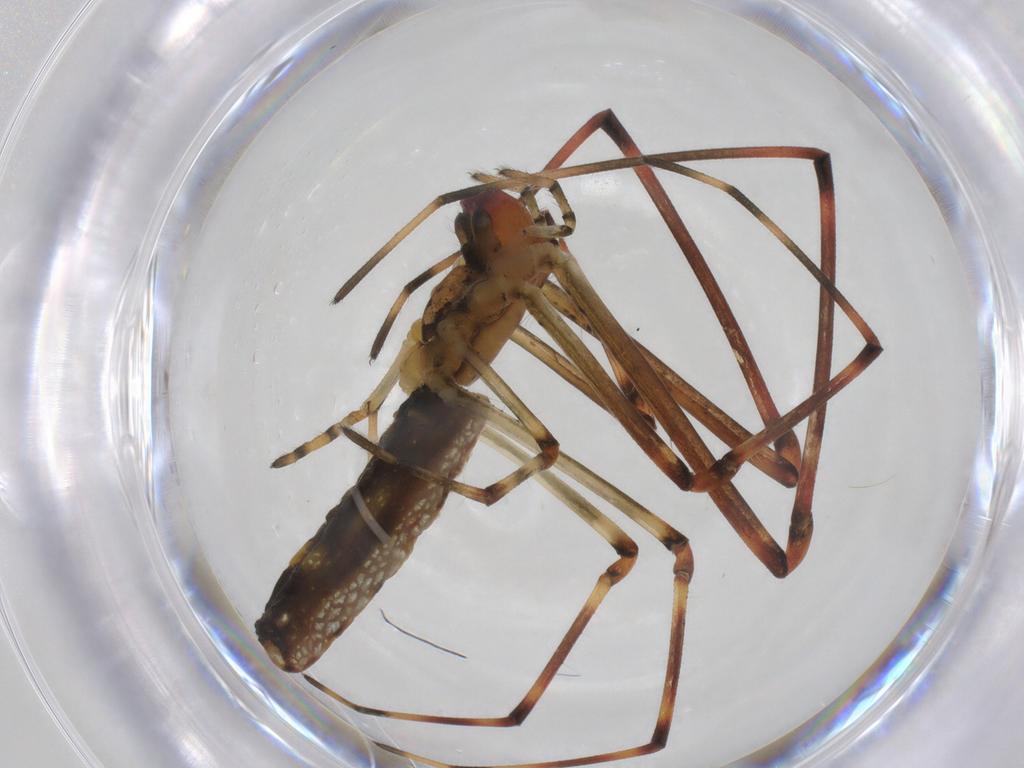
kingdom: Animalia
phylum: Arthropoda
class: Arachnida
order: Araneae
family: Tetragnathidae
